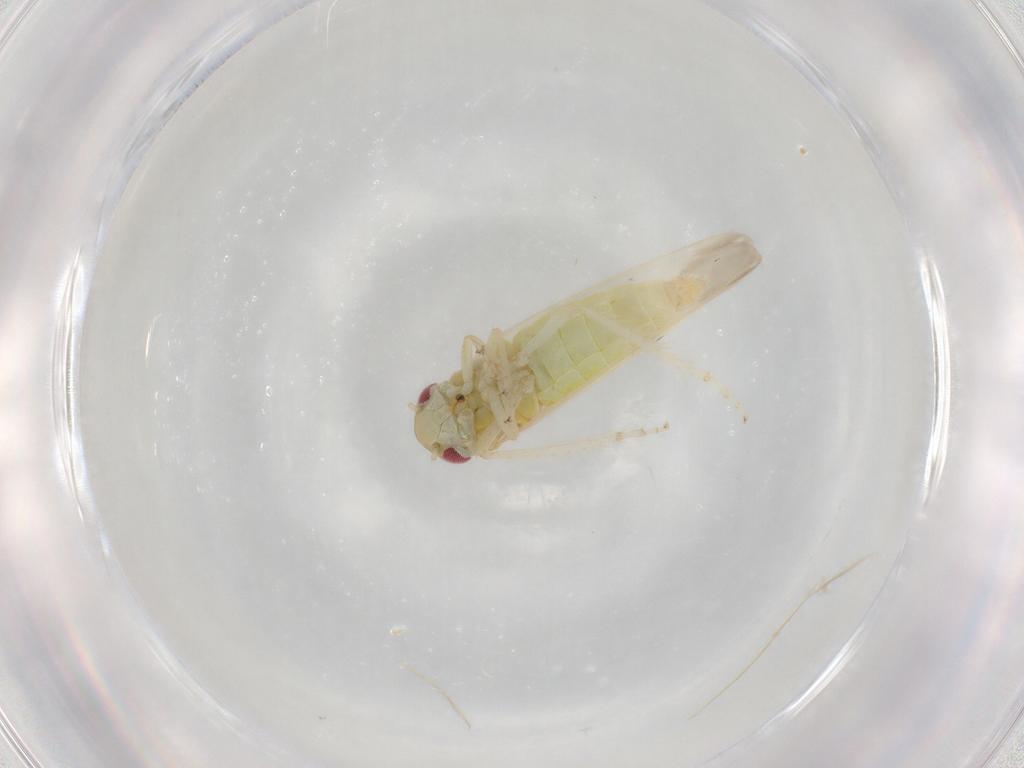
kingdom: Animalia
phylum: Arthropoda
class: Insecta
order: Hemiptera
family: Cicadellidae
